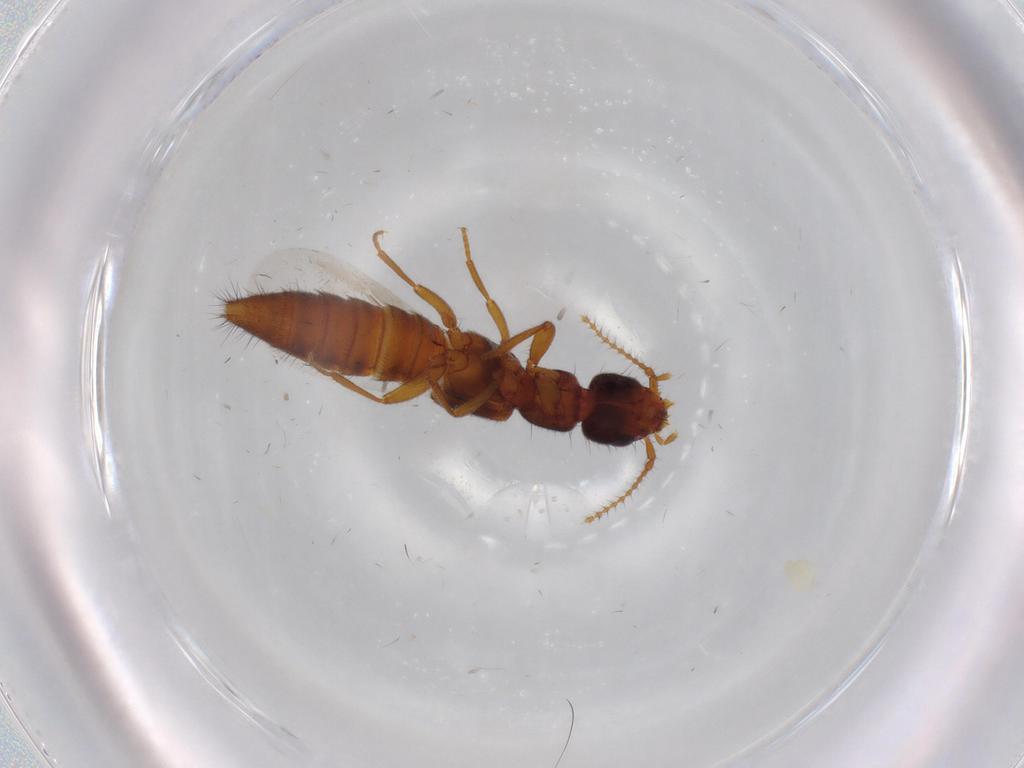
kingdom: Animalia
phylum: Arthropoda
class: Insecta
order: Coleoptera
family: Staphylinidae
